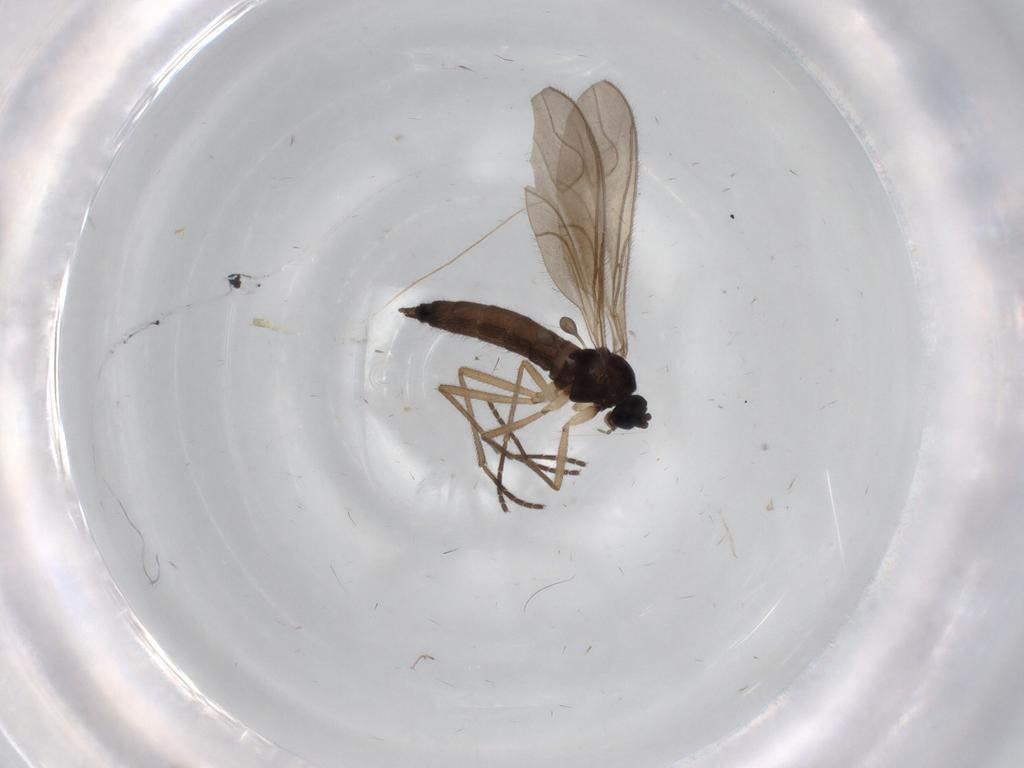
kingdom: Animalia
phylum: Arthropoda
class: Insecta
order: Diptera
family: Sciaridae
